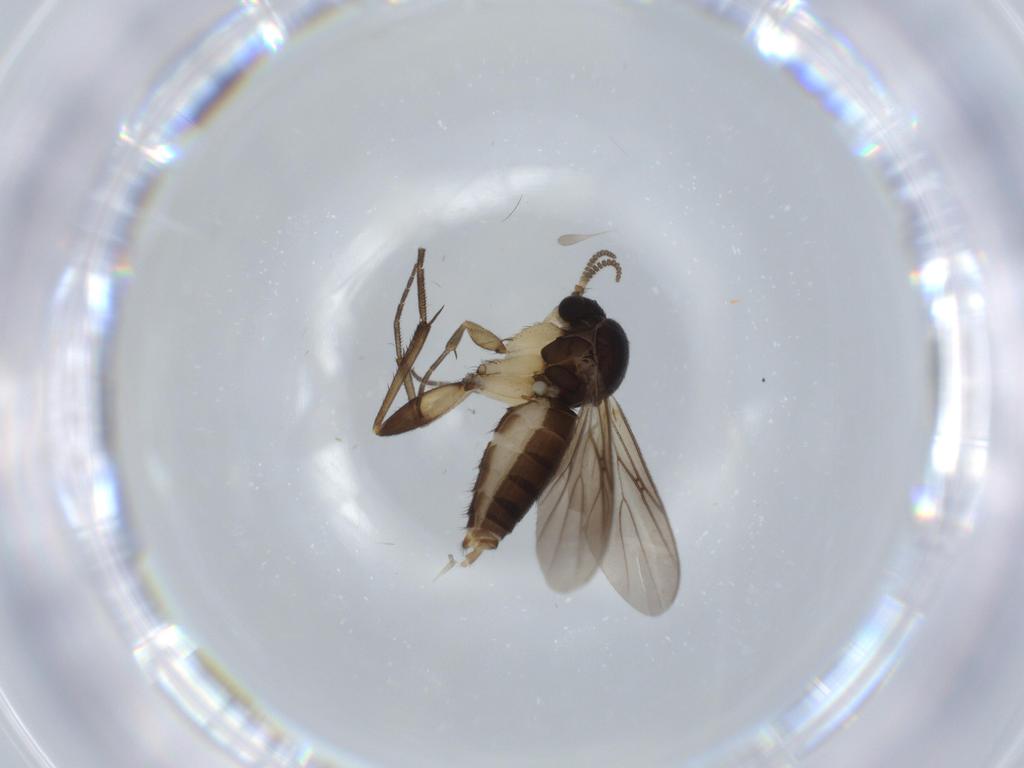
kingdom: Animalia
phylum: Arthropoda
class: Insecta
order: Diptera
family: Mycetophilidae
